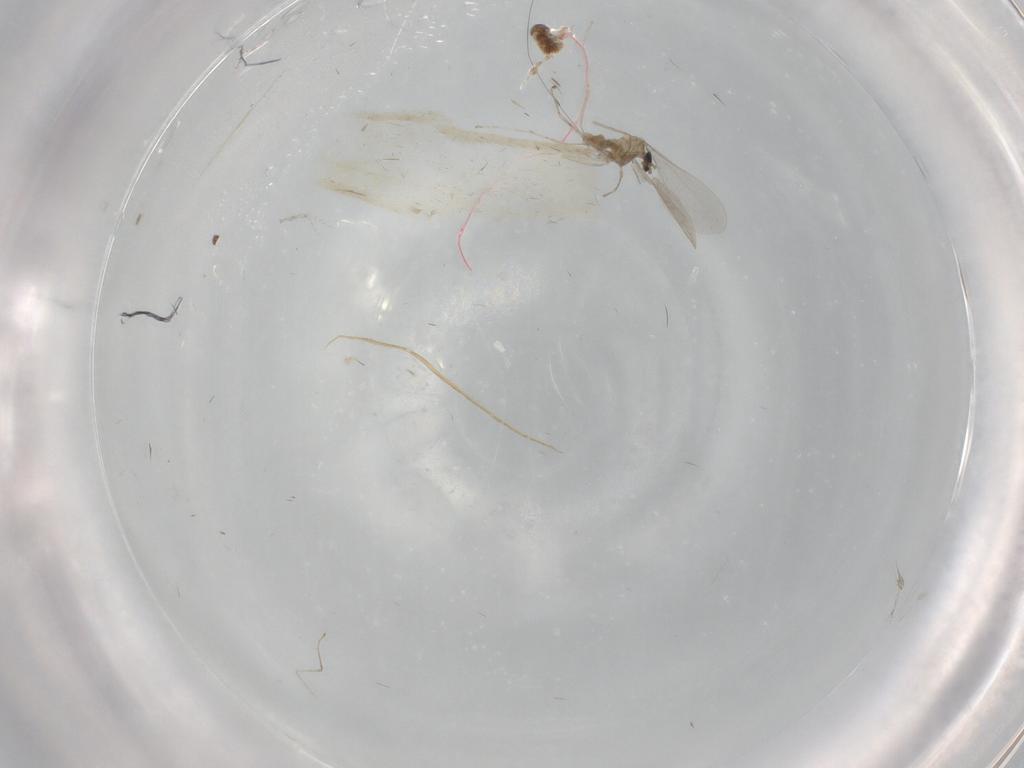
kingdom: Animalia
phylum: Arthropoda
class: Insecta
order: Diptera
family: Cecidomyiidae
